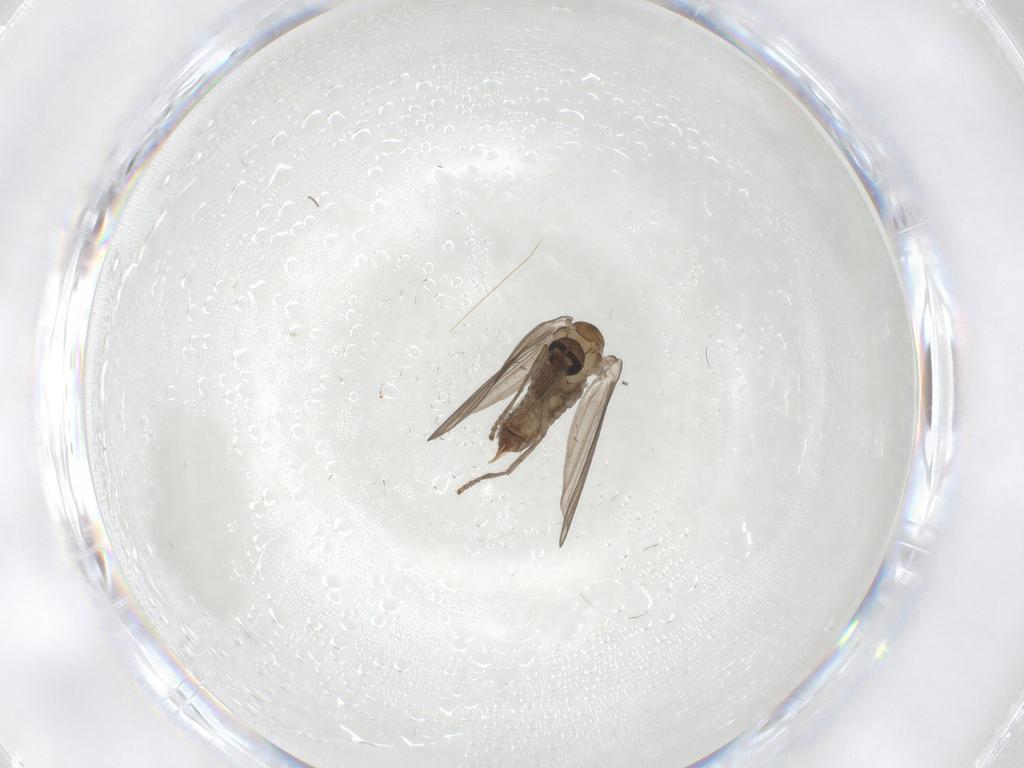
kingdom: Animalia
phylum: Arthropoda
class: Insecta
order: Diptera
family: Psychodidae
